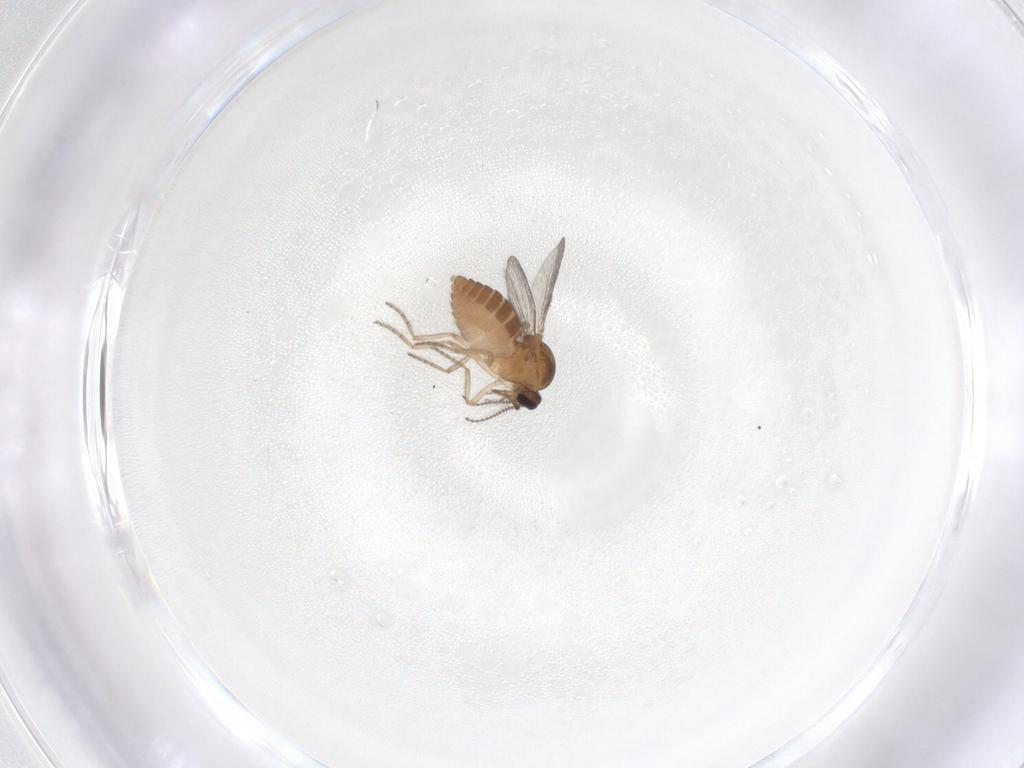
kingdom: Animalia
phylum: Arthropoda
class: Insecta
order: Diptera
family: Ceratopogonidae
